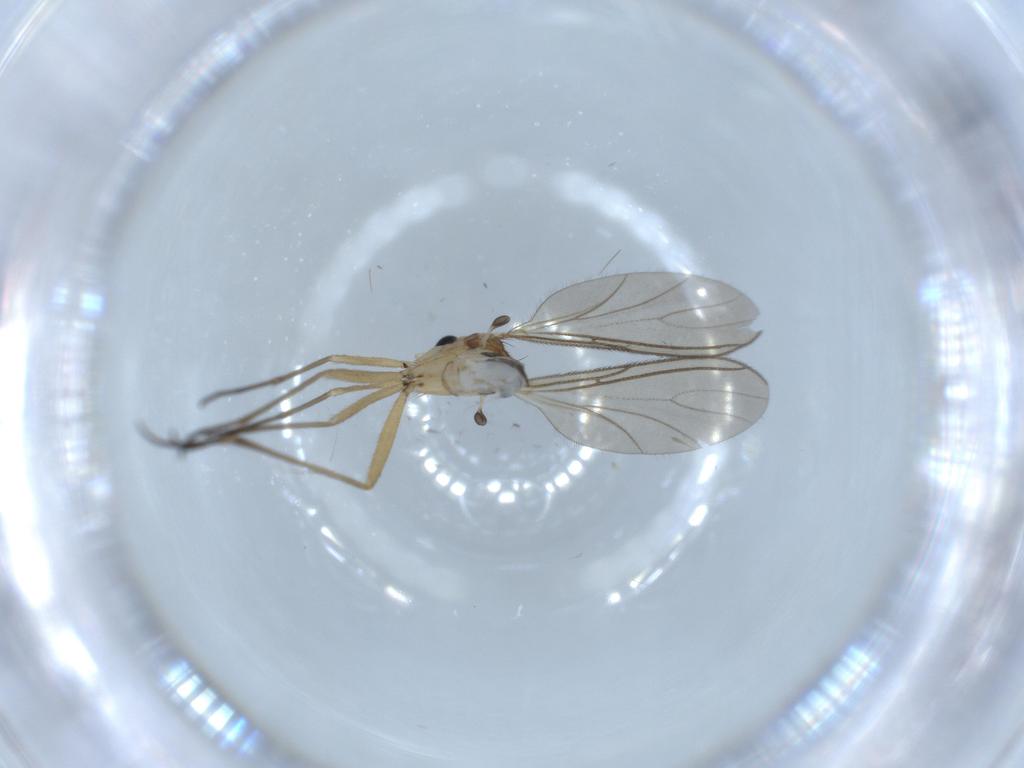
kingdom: Animalia
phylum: Arthropoda
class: Insecta
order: Diptera
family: Sciaridae
